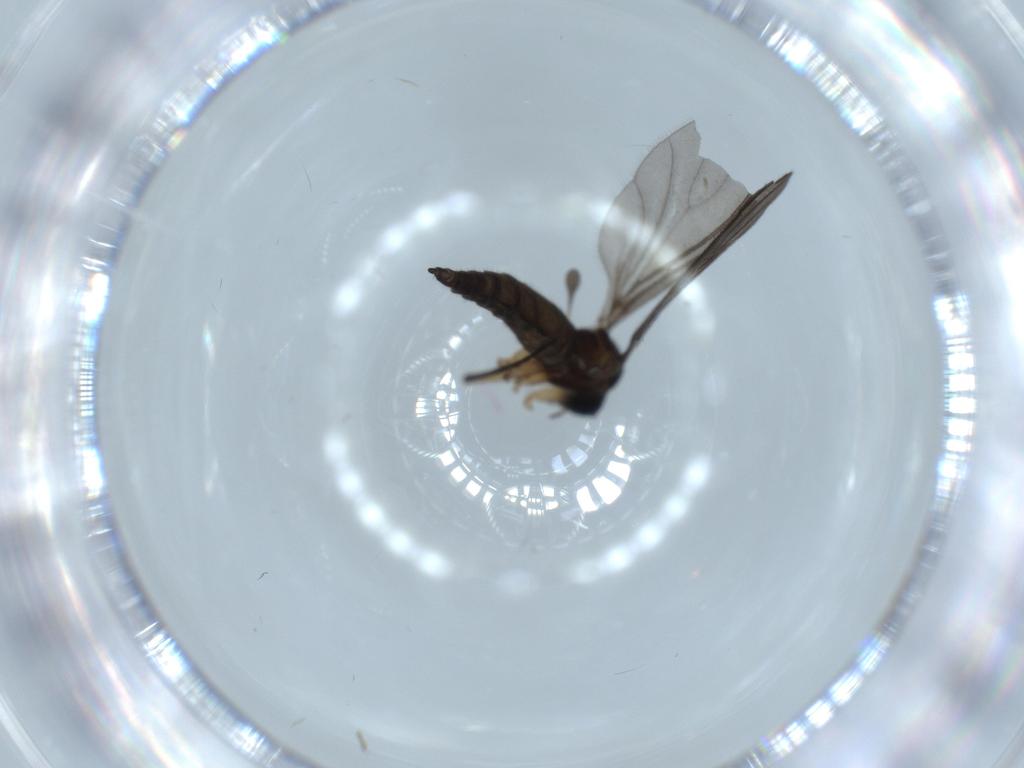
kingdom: Animalia
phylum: Arthropoda
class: Insecta
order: Diptera
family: Sciaridae
